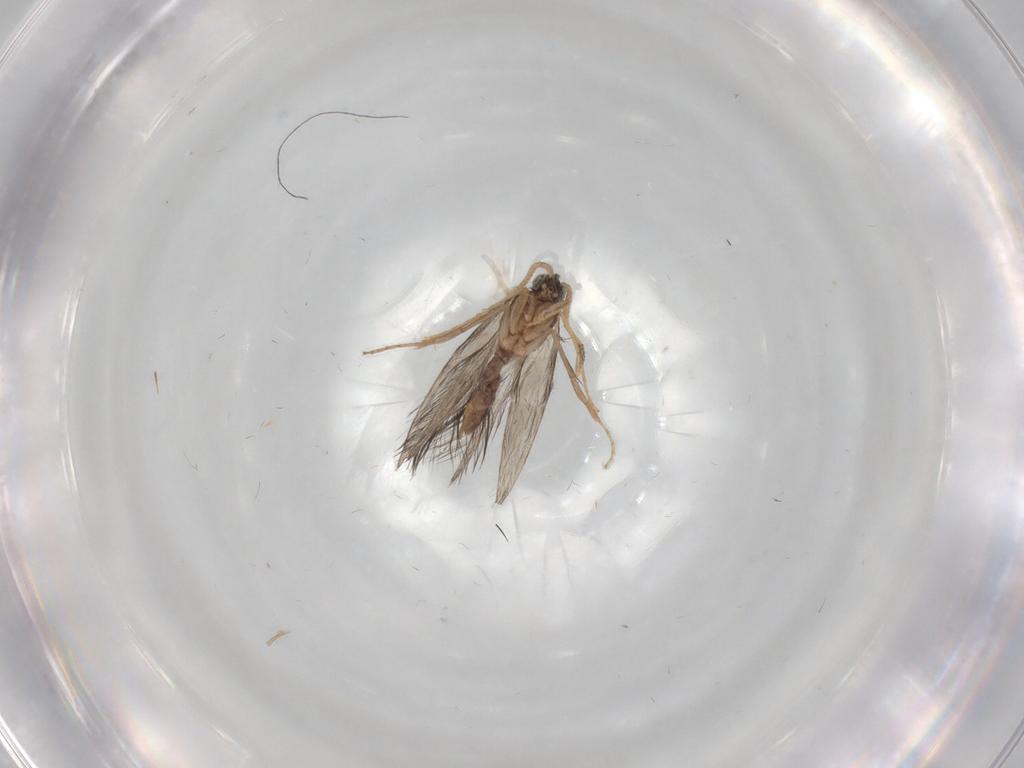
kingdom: Animalia
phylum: Arthropoda
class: Insecta
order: Trichoptera
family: Hydroptilidae
